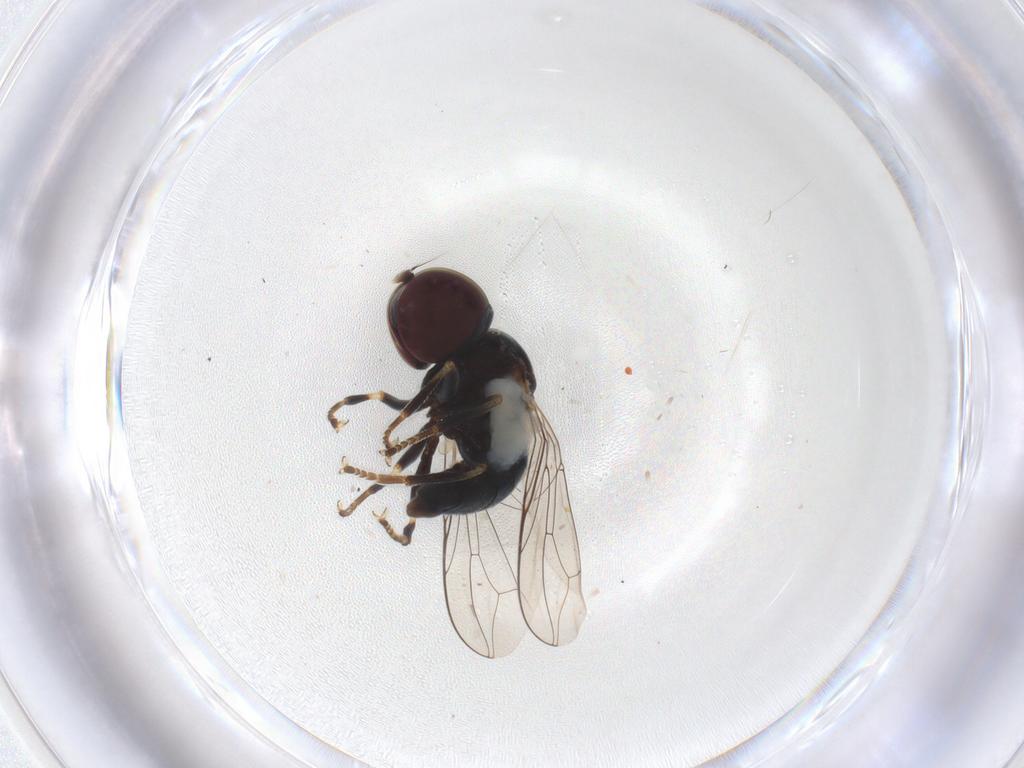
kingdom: Animalia
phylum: Arthropoda
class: Insecta
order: Diptera
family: Pipunculidae
